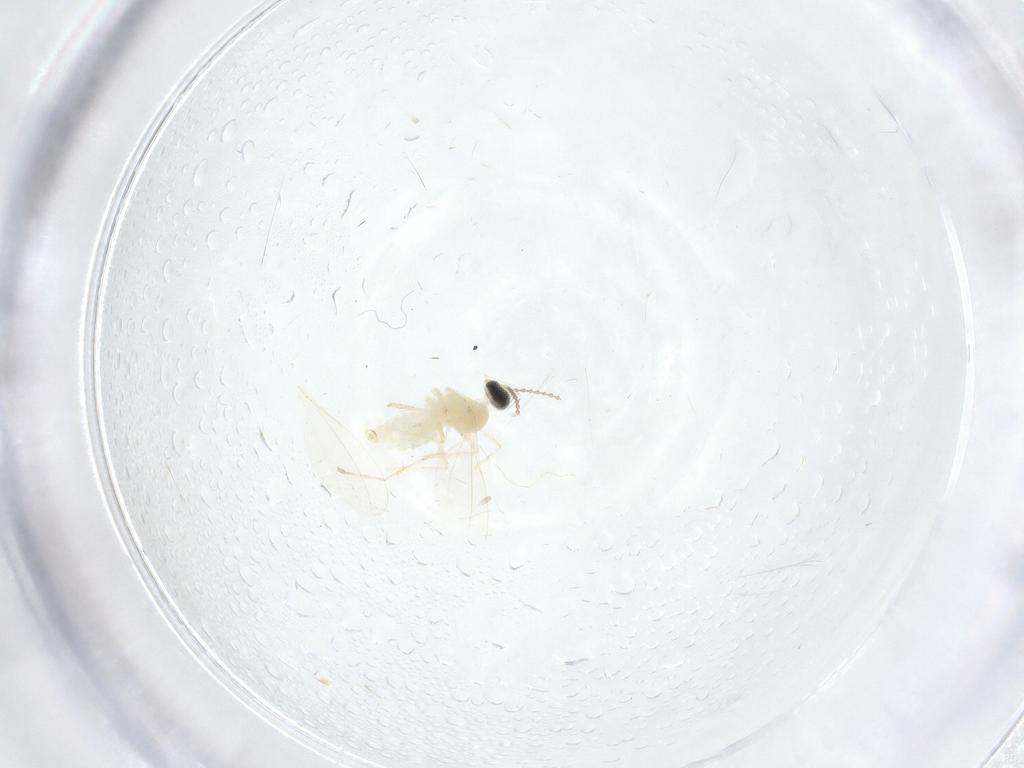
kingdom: Animalia
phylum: Arthropoda
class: Insecta
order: Diptera
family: Cecidomyiidae
